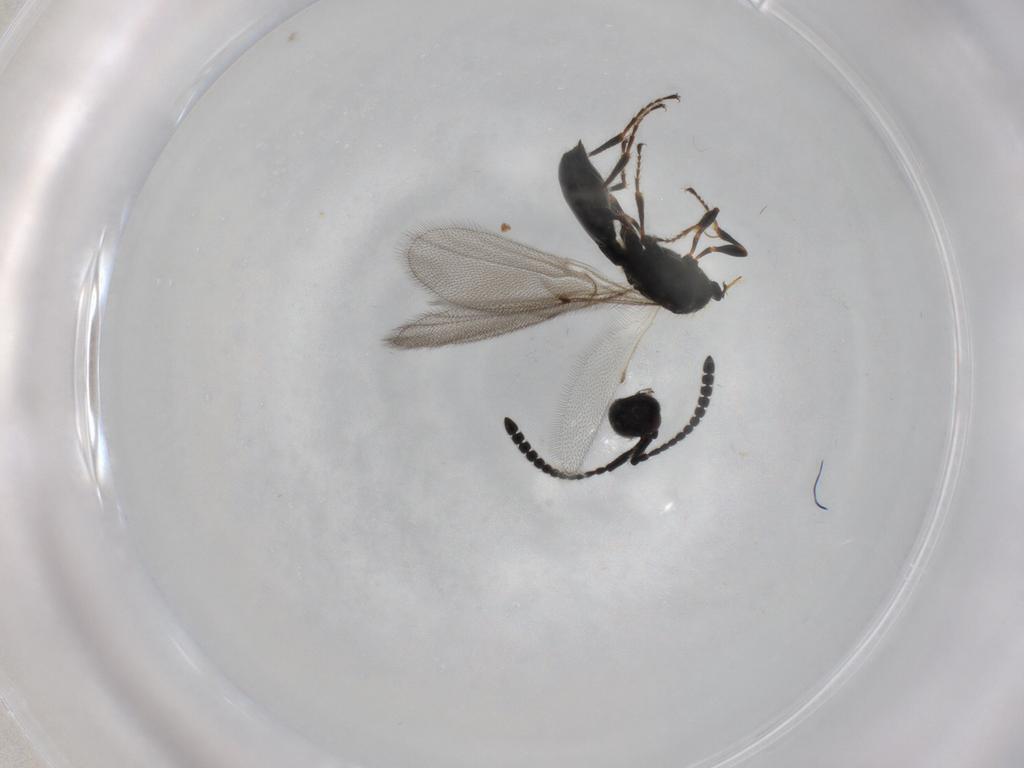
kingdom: Animalia
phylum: Arthropoda
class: Insecta
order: Hymenoptera
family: Diapriidae
